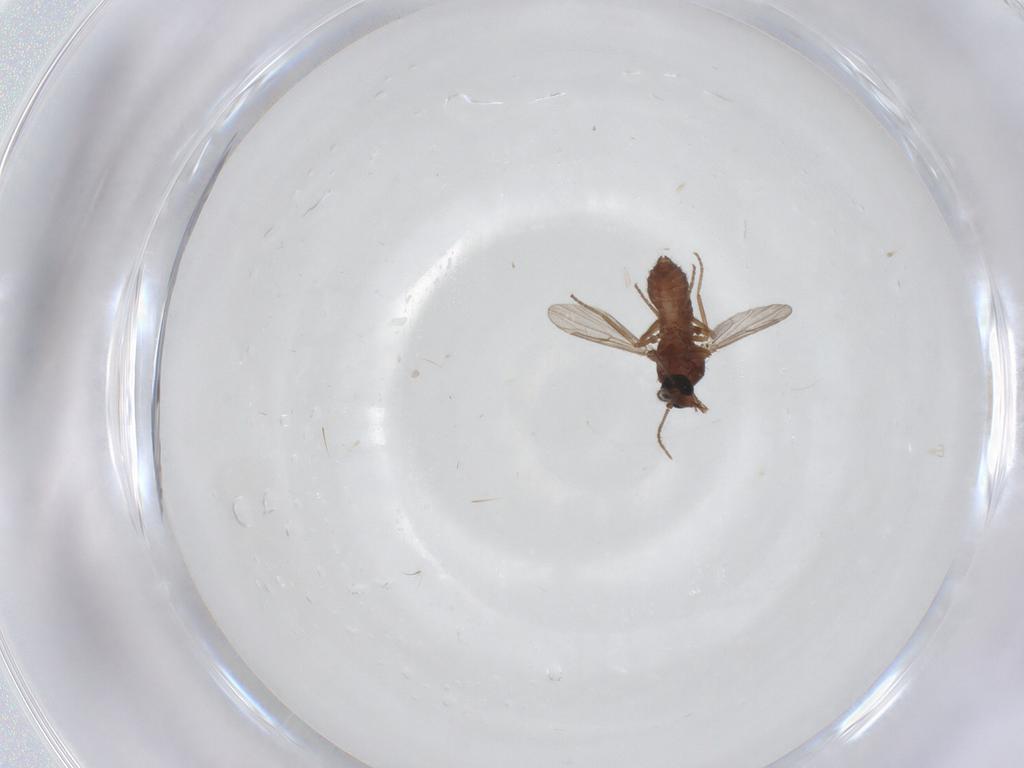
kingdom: Animalia
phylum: Arthropoda
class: Insecta
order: Diptera
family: Ceratopogonidae
